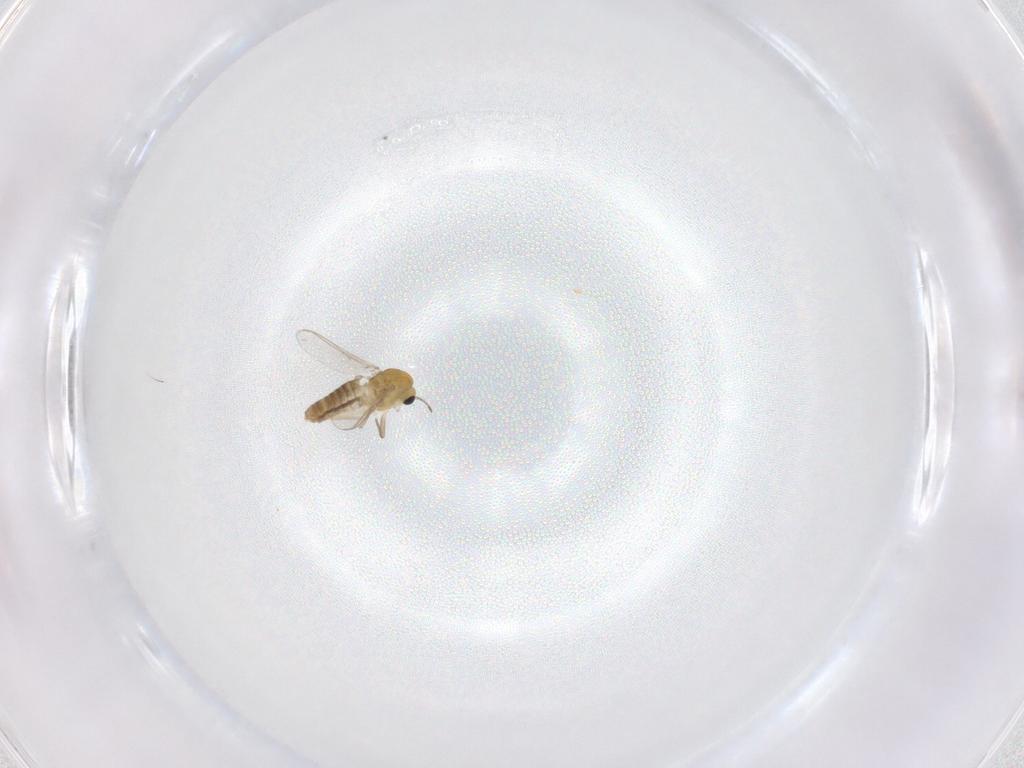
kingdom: Animalia
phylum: Arthropoda
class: Insecta
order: Diptera
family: Chironomidae
